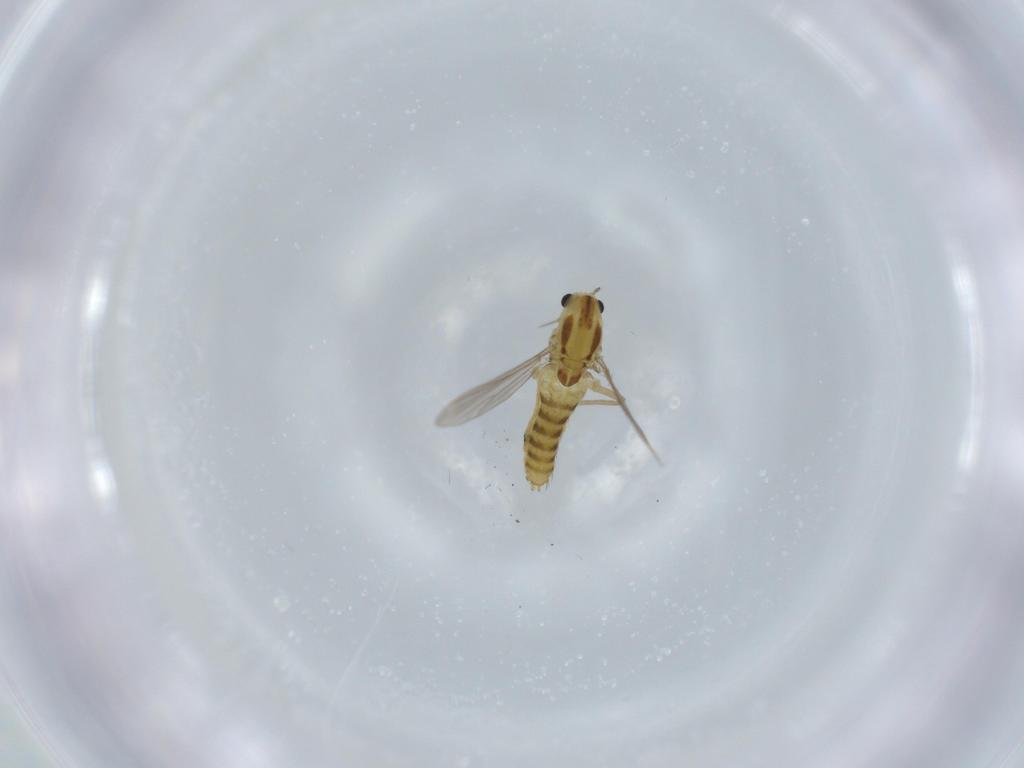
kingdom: Animalia
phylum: Arthropoda
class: Insecta
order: Diptera
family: Chironomidae
